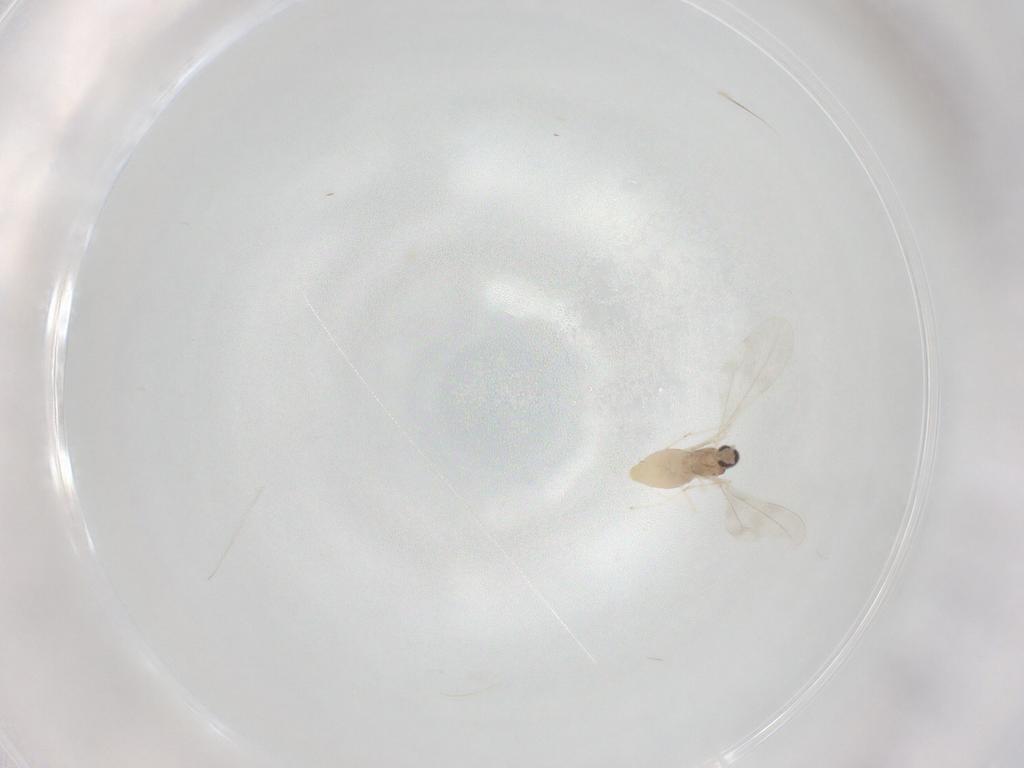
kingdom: Animalia
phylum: Arthropoda
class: Insecta
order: Diptera
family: Cecidomyiidae
